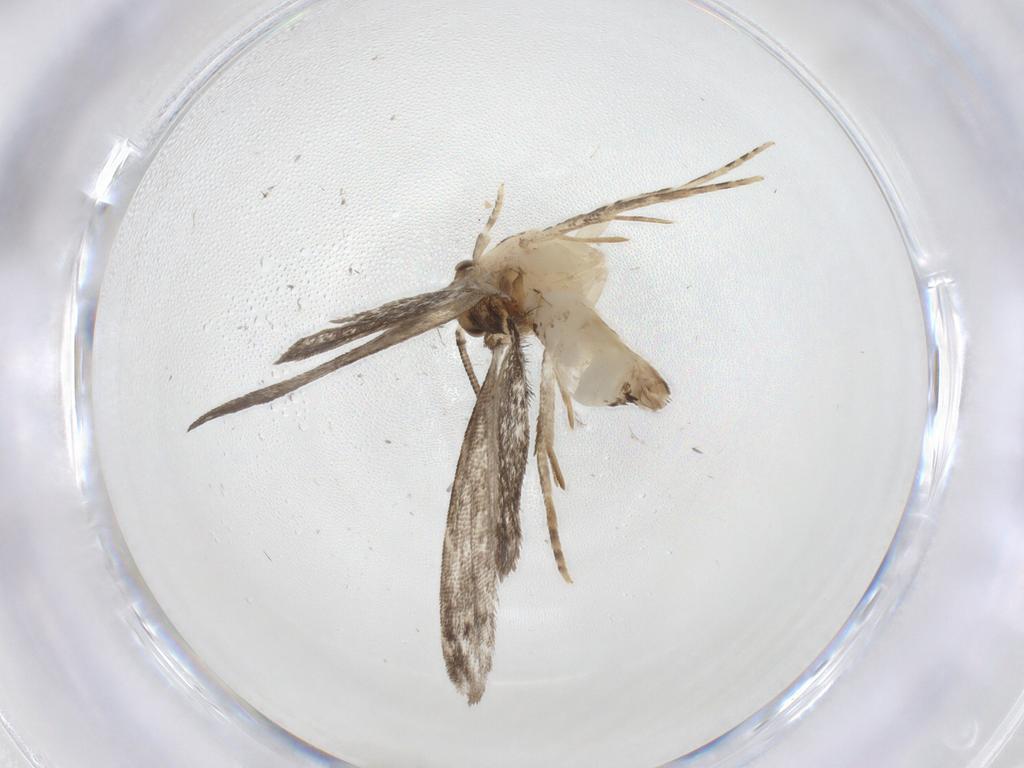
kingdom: Animalia
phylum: Arthropoda
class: Insecta
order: Lepidoptera
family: Dryadaulidae
